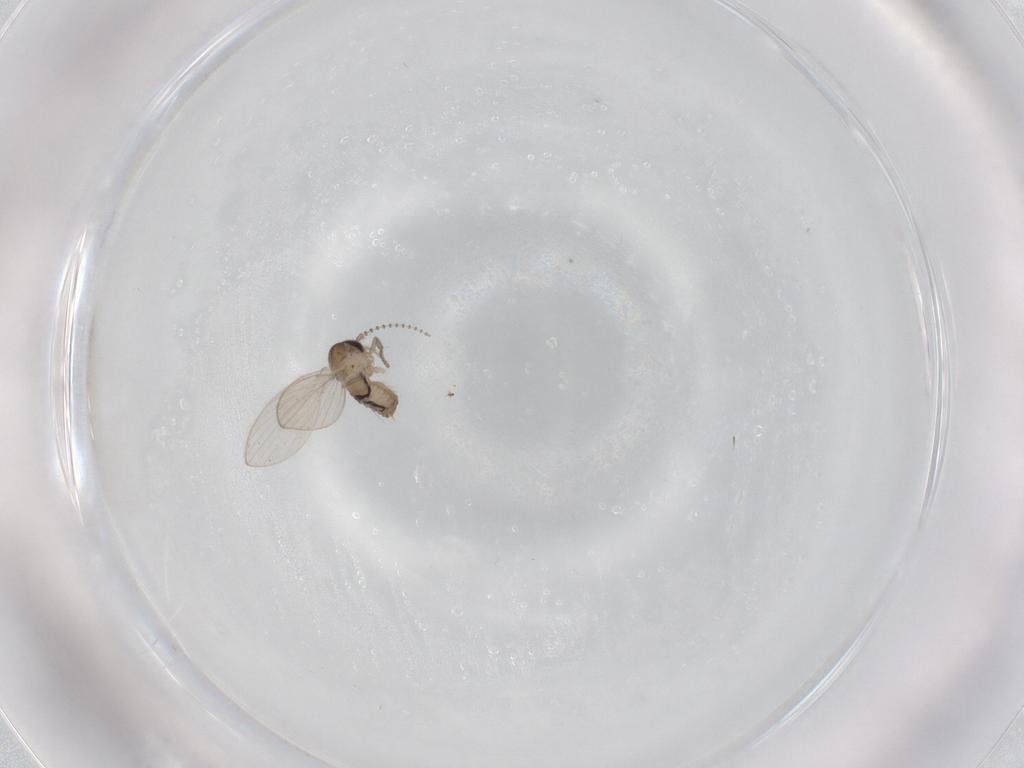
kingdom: Animalia
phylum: Arthropoda
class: Insecta
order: Diptera
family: Psychodidae
